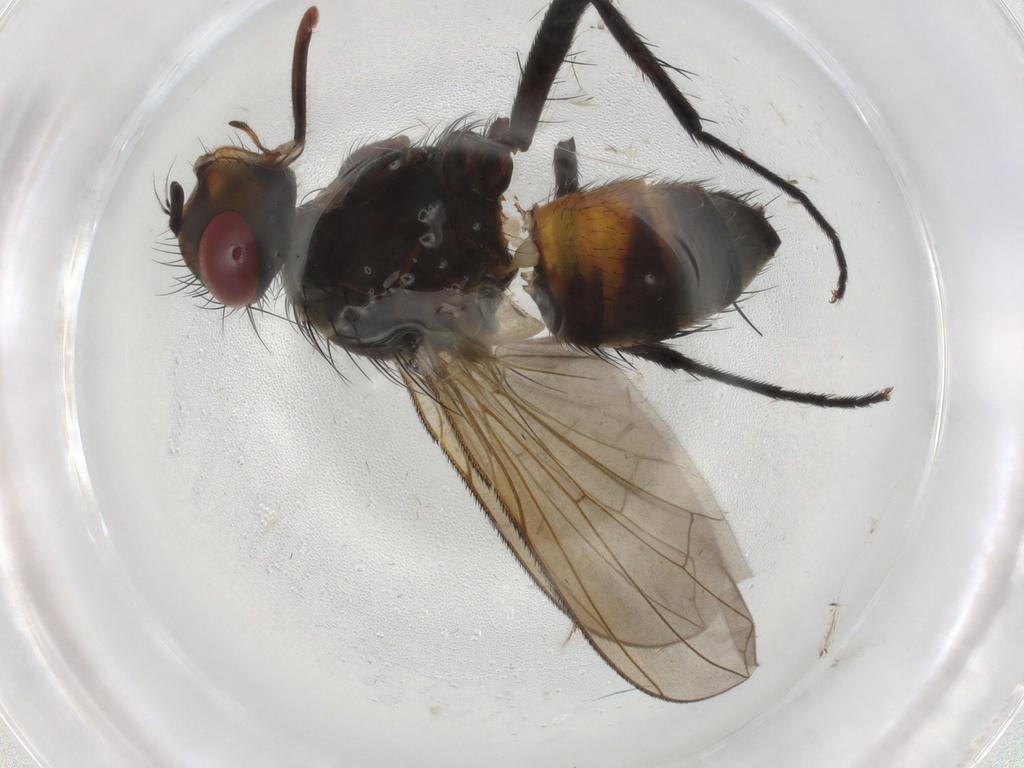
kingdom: Animalia
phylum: Arthropoda
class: Insecta
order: Diptera
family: Tachinidae
